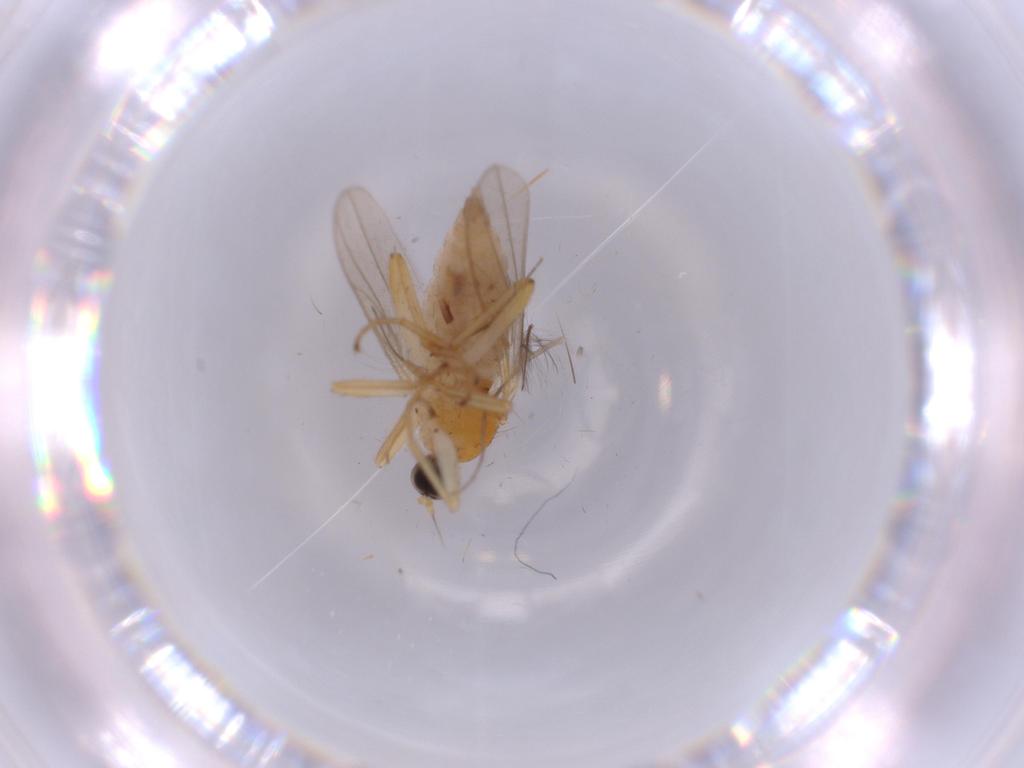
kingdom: Animalia
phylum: Arthropoda
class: Insecta
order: Diptera
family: Hybotidae
